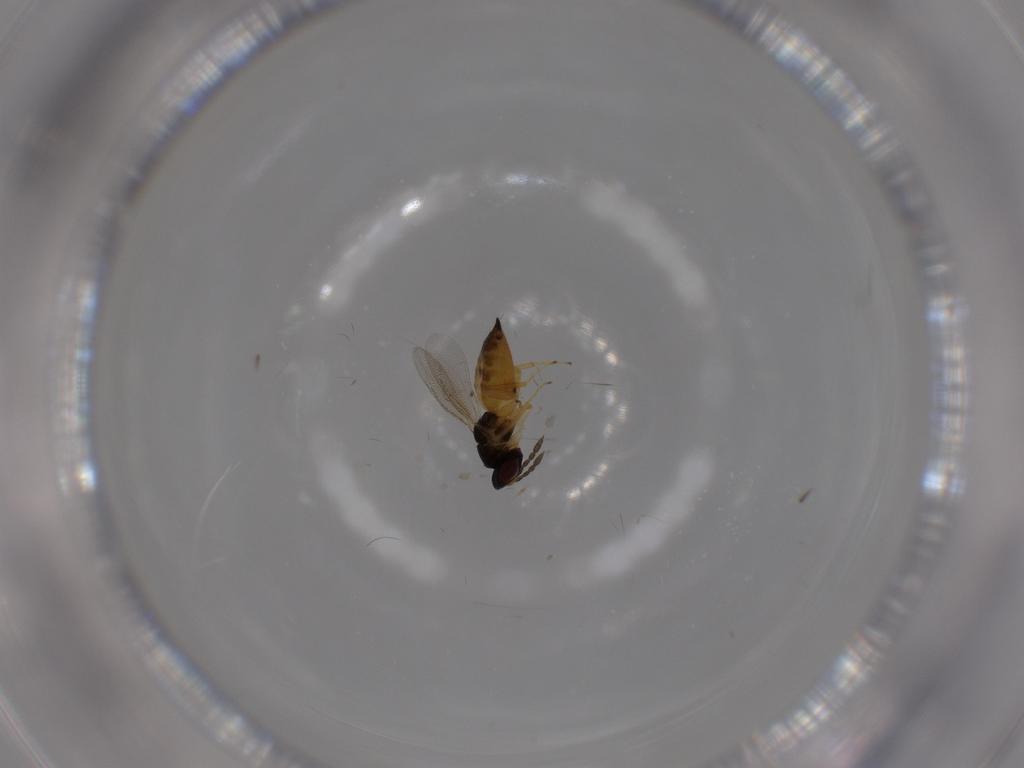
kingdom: Animalia
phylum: Arthropoda
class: Insecta
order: Hymenoptera
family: Eulophidae
